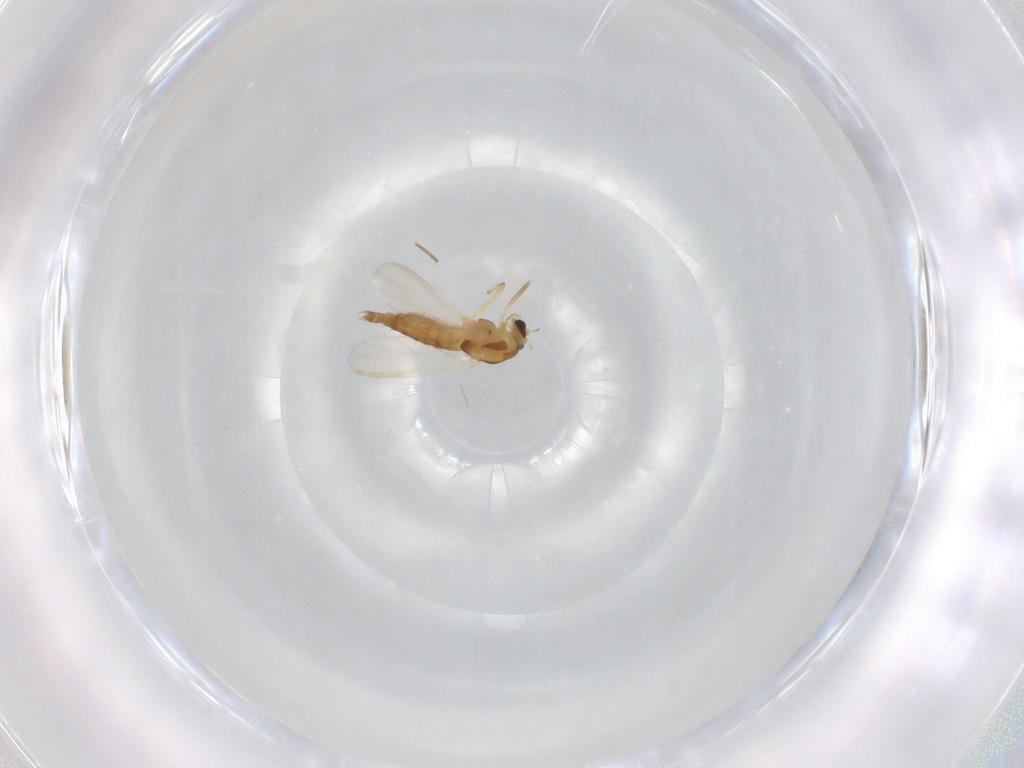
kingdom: Animalia
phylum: Arthropoda
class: Insecta
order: Diptera
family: Chironomidae
